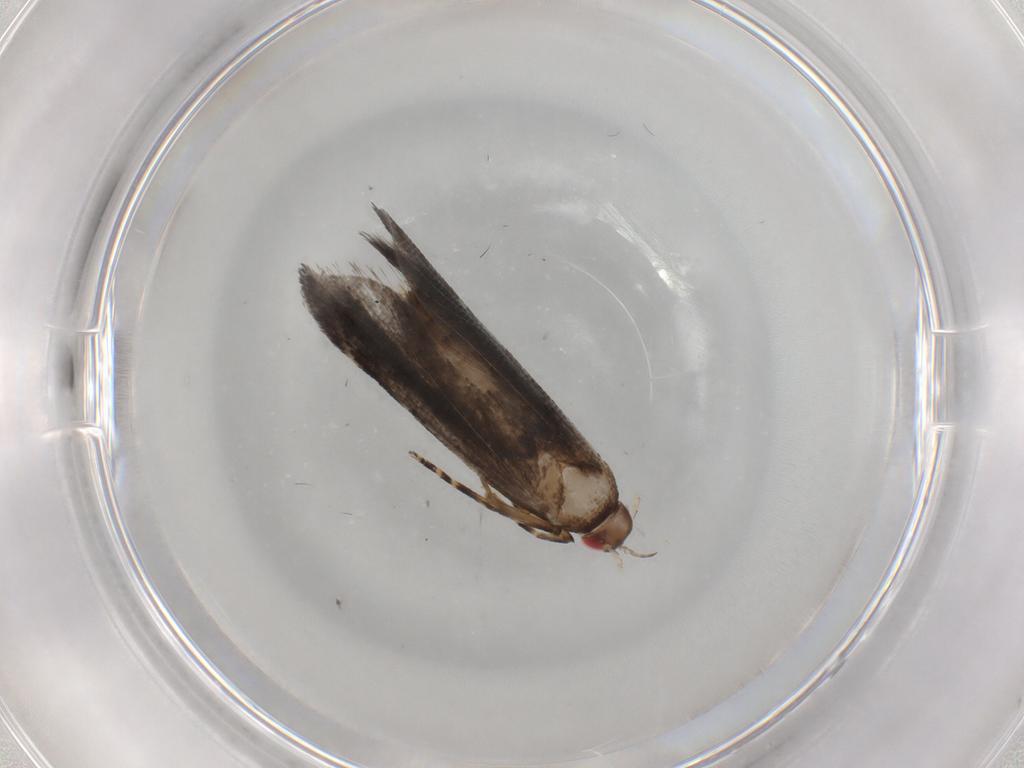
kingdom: Animalia
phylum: Arthropoda
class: Insecta
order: Lepidoptera
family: Gelechiidae
